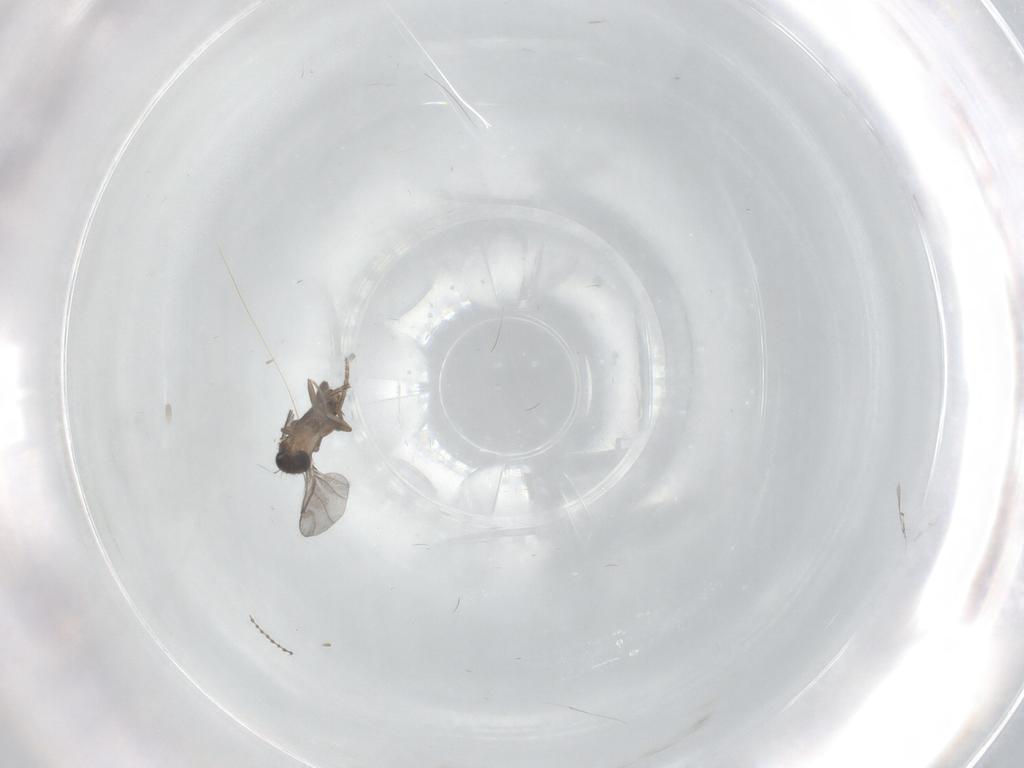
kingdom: Animalia
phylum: Arthropoda
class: Insecta
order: Diptera
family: Cecidomyiidae
